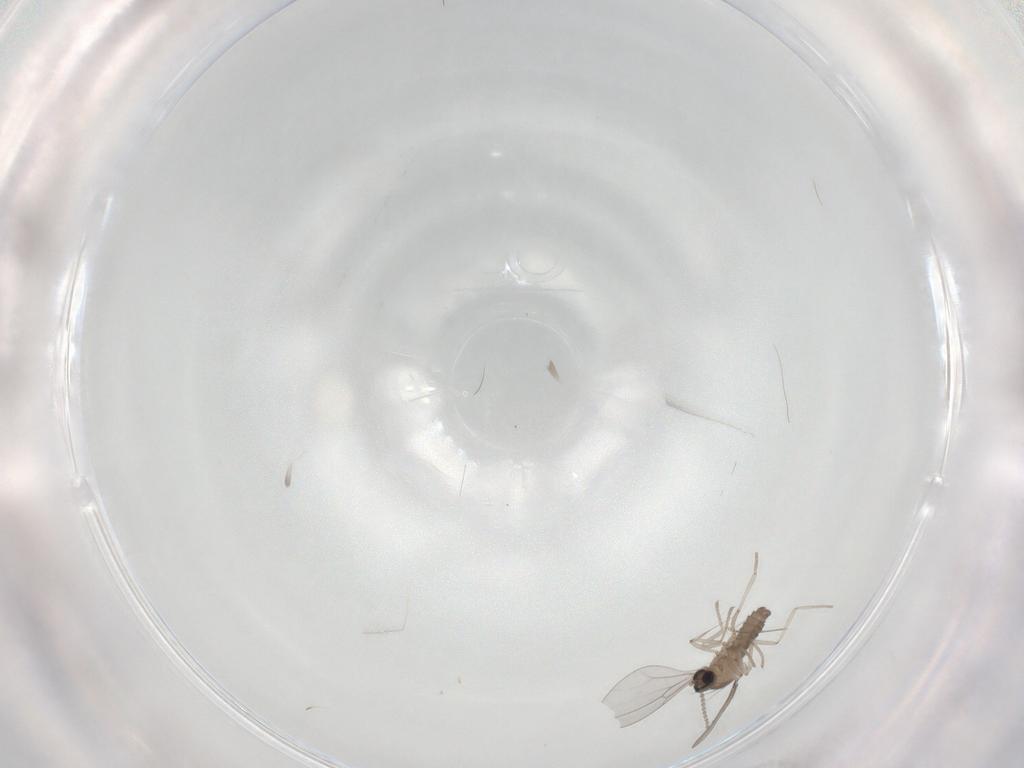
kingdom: Animalia
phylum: Arthropoda
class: Insecta
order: Diptera
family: Cecidomyiidae
